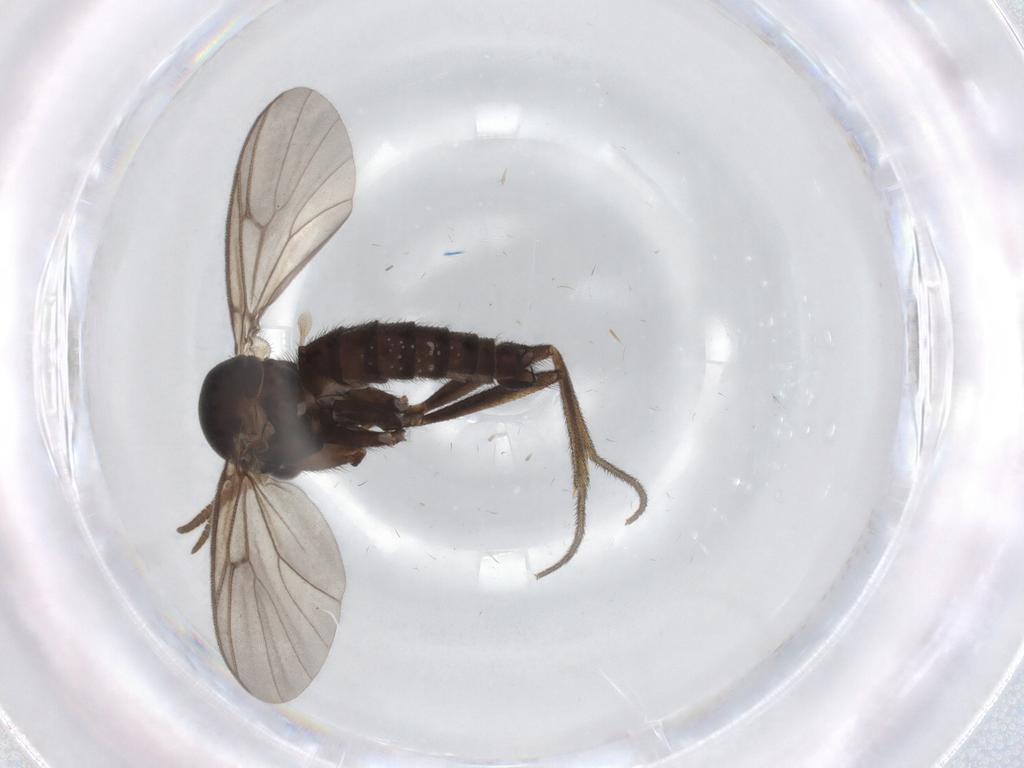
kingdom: Animalia
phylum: Arthropoda
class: Insecta
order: Diptera
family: Mycetophilidae
